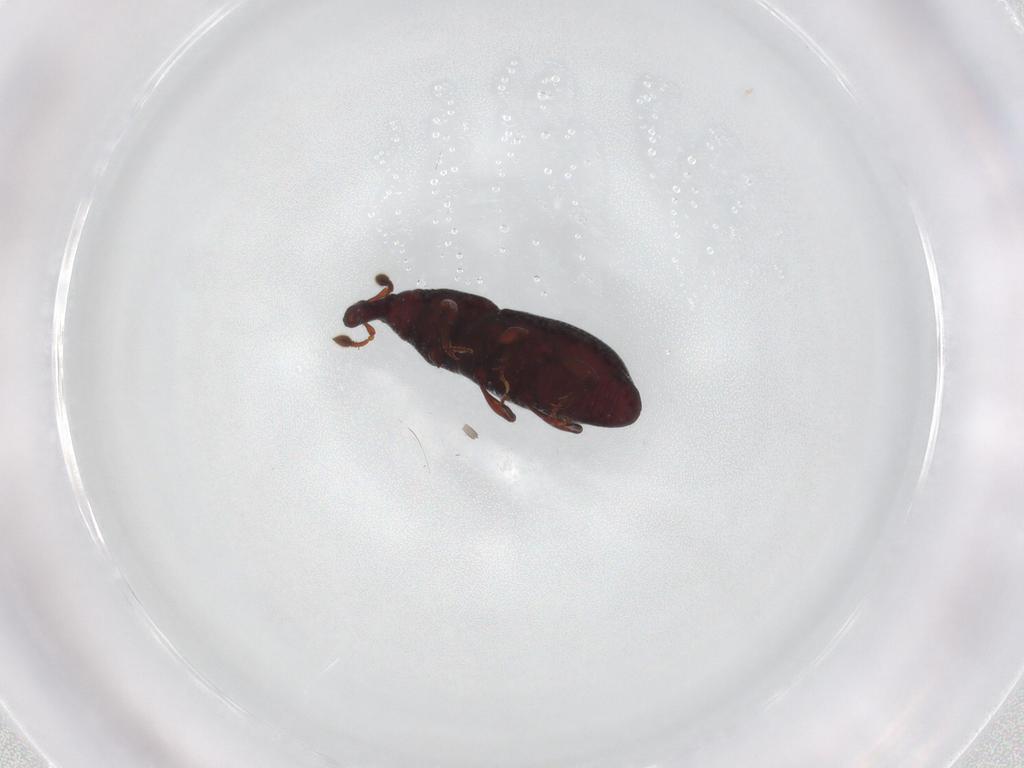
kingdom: Animalia
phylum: Arthropoda
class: Insecta
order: Coleoptera
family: Curculionidae
